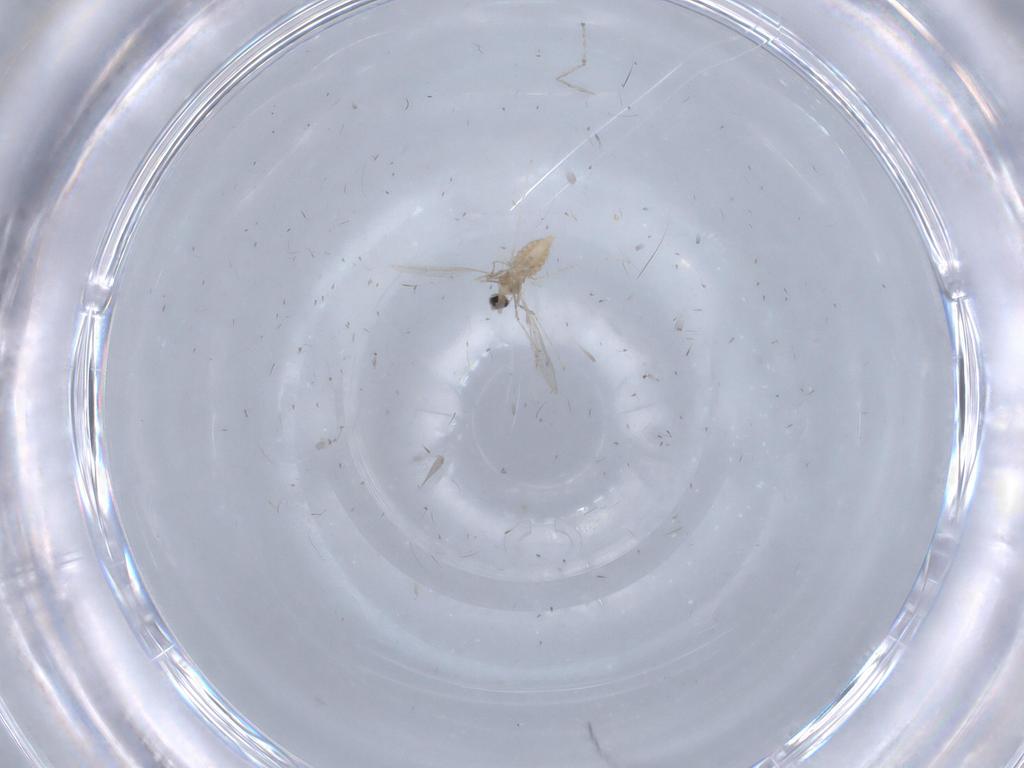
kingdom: Animalia
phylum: Arthropoda
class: Insecta
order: Diptera
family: Cecidomyiidae
